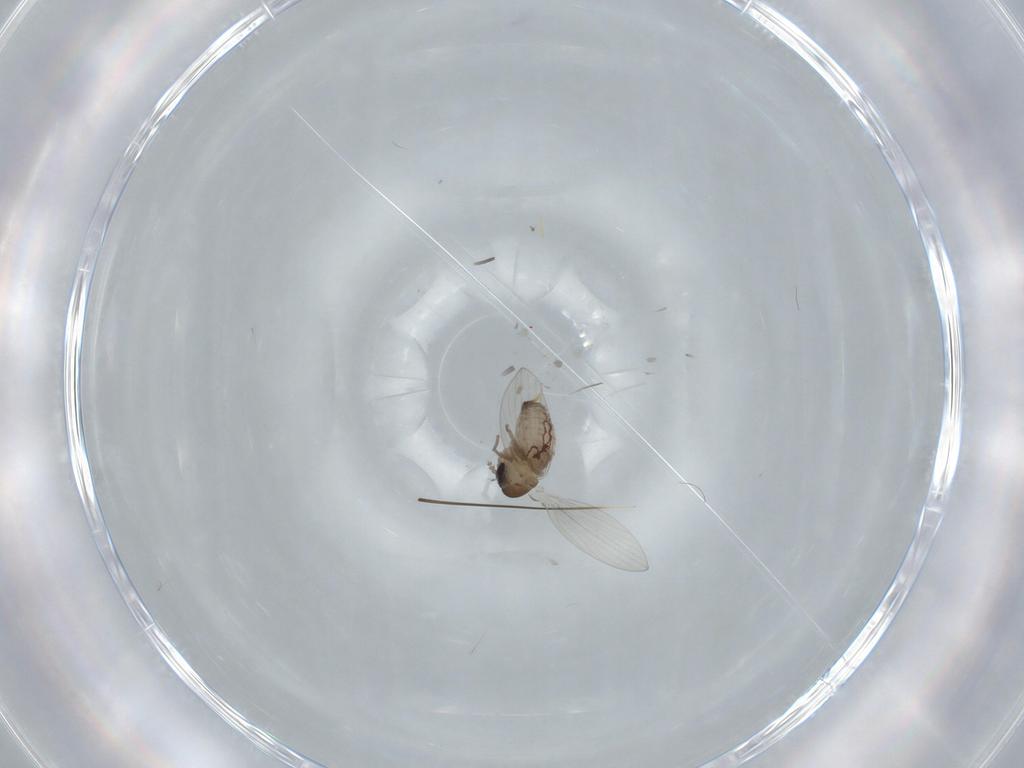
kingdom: Animalia
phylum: Arthropoda
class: Insecta
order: Diptera
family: Psychodidae
